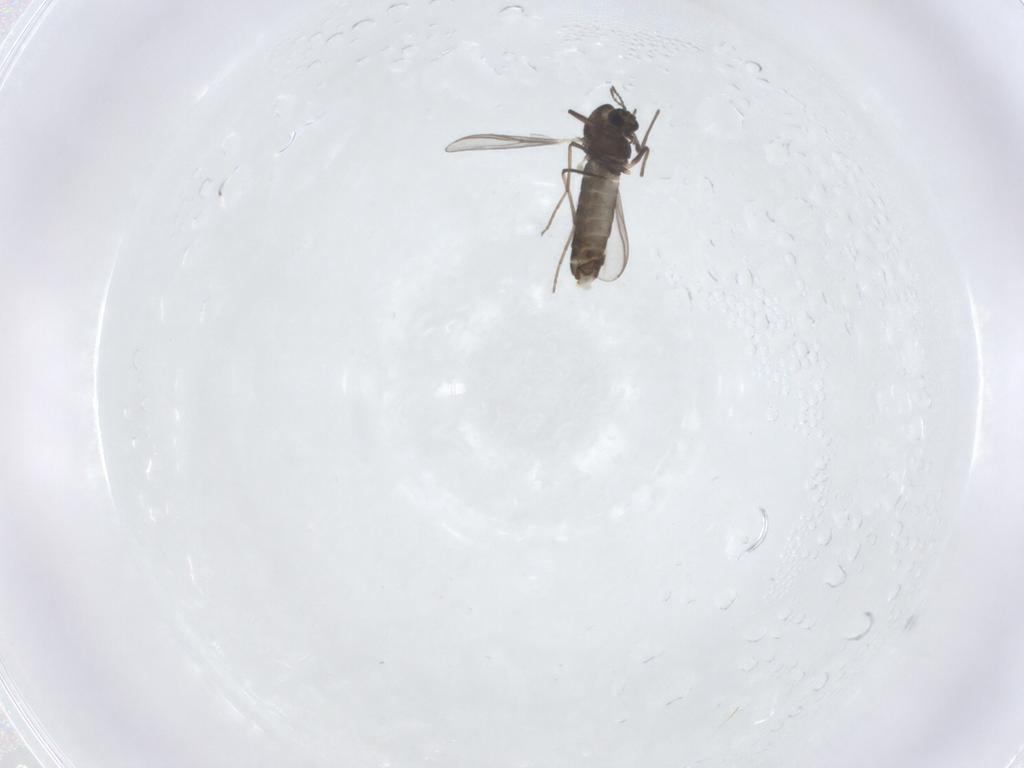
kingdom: Animalia
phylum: Arthropoda
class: Insecta
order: Diptera
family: Chironomidae
